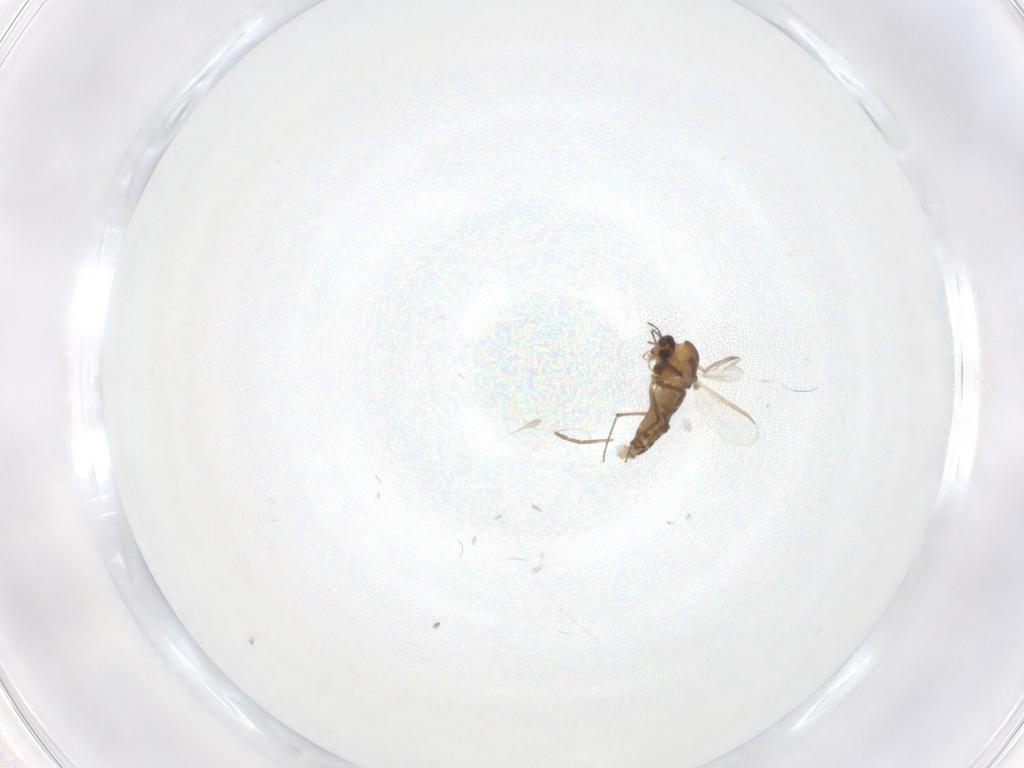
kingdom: Animalia
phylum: Arthropoda
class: Insecta
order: Diptera
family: Chironomidae
